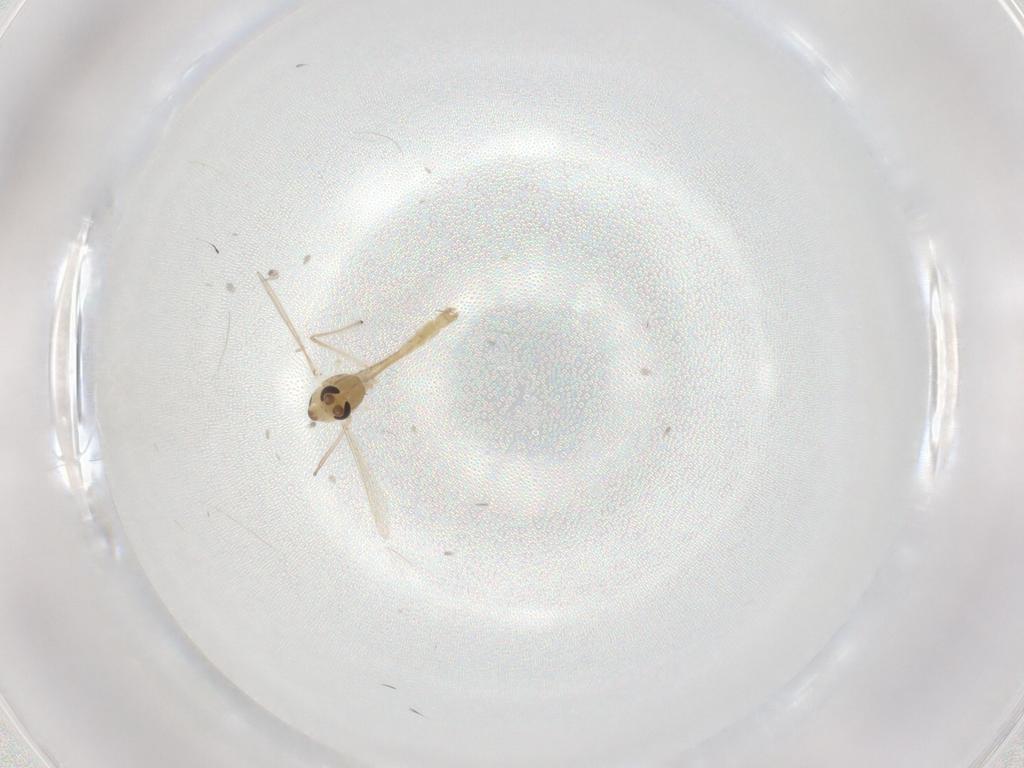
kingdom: Animalia
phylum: Arthropoda
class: Insecta
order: Diptera
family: Chironomidae
